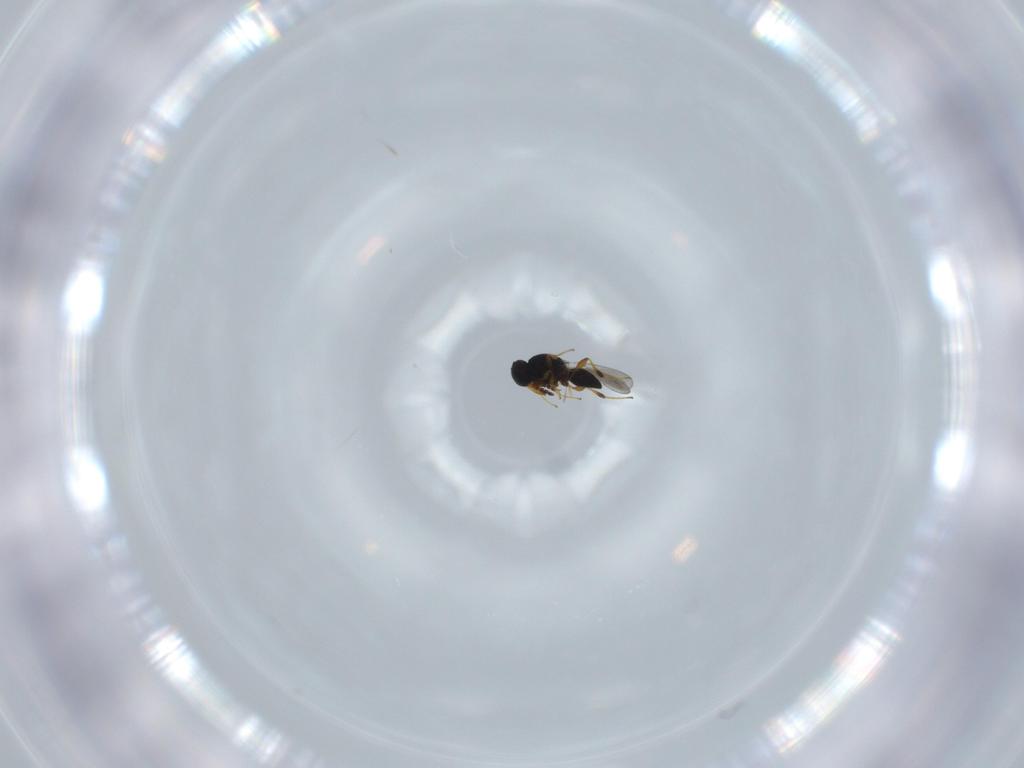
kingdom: Animalia
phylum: Arthropoda
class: Insecta
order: Hymenoptera
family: Platygastridae
